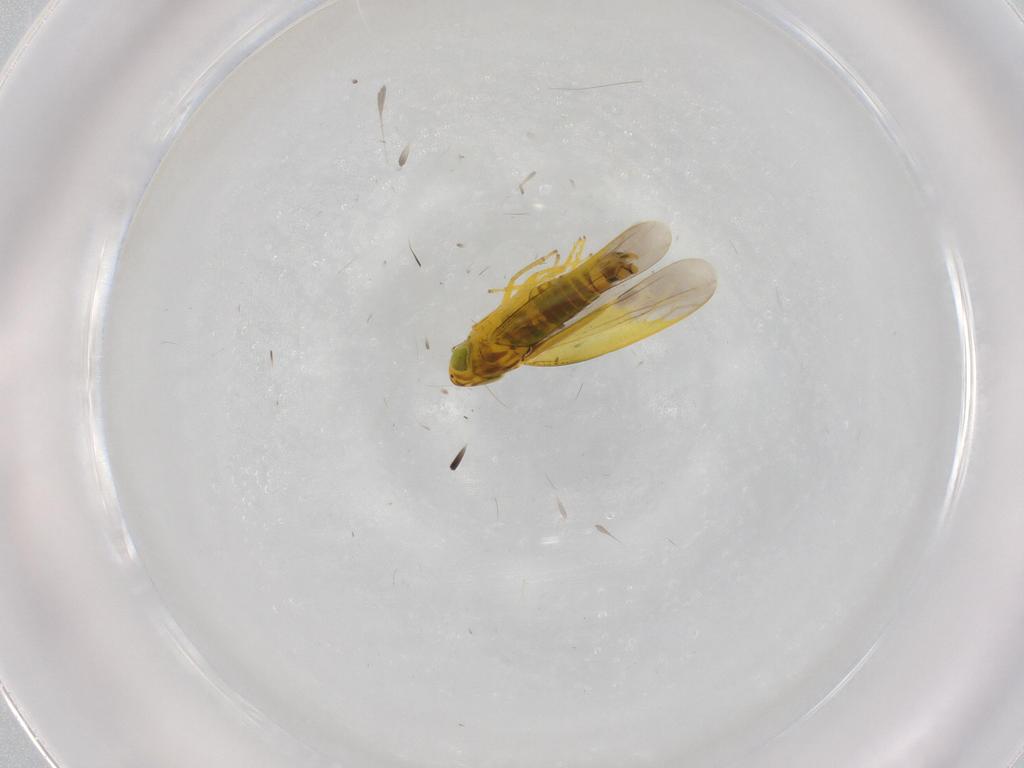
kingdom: Animalia
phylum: Arthropoda
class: Insecta
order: Hemiptera
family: Cicadellidae
